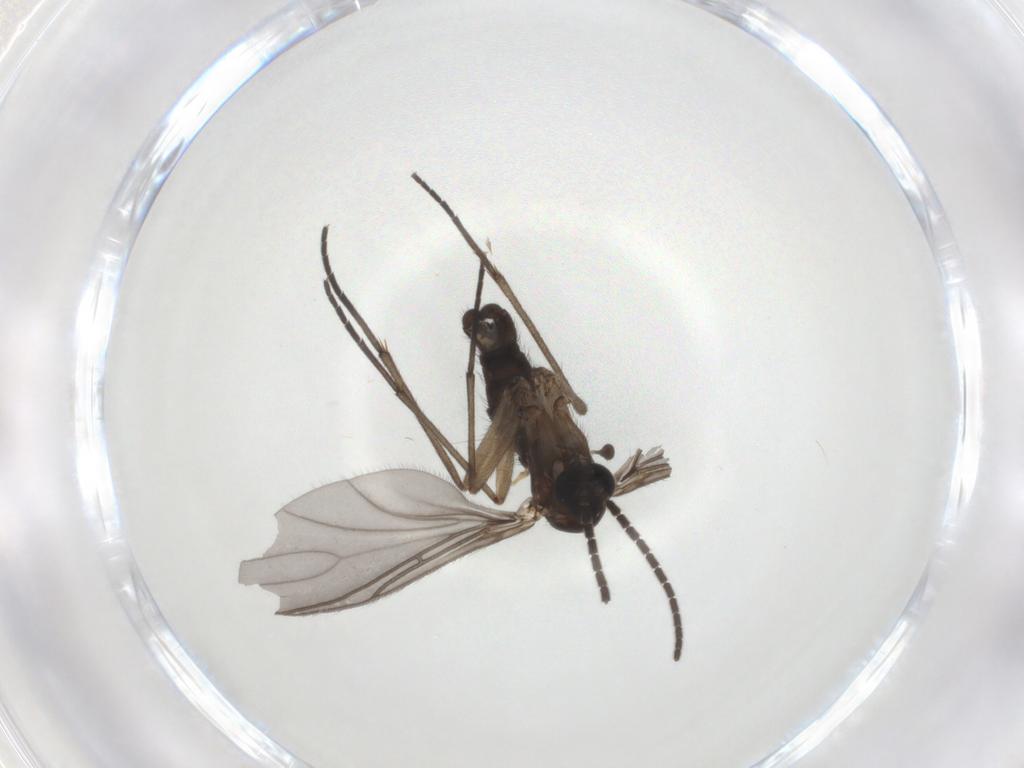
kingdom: Animalia
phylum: Arthropoda
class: Insecta
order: Diptera
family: Sciaridae
